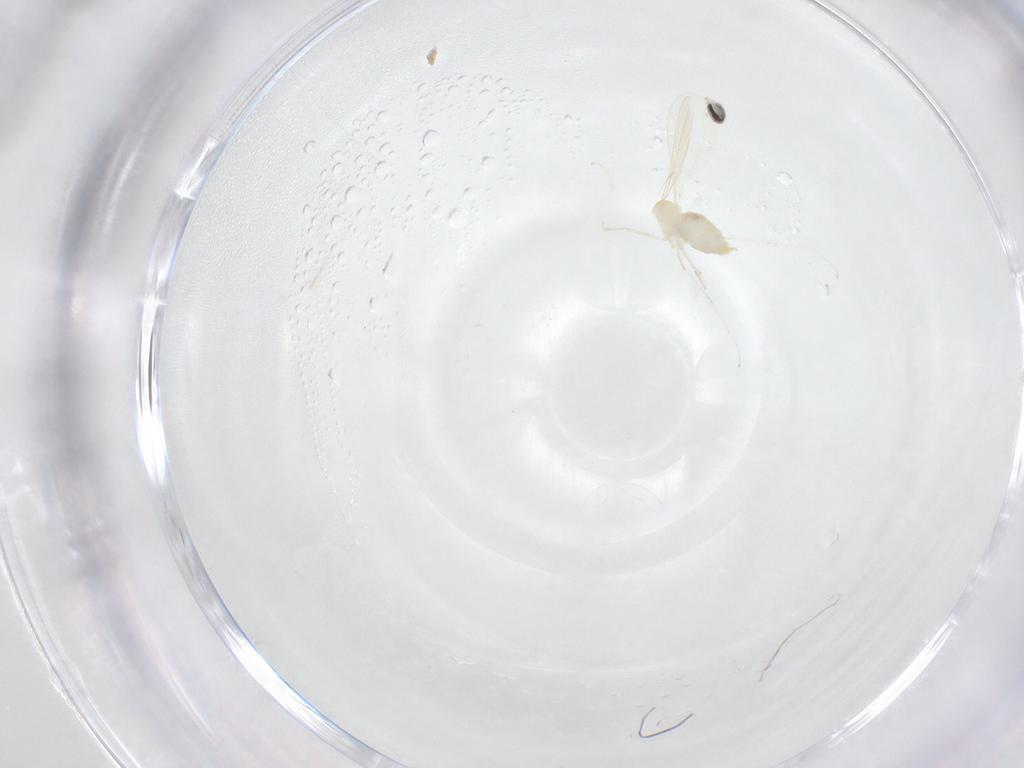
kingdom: Animalia
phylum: Arthropoda
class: Insecta
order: Diptera
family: Cecidomyiidae
